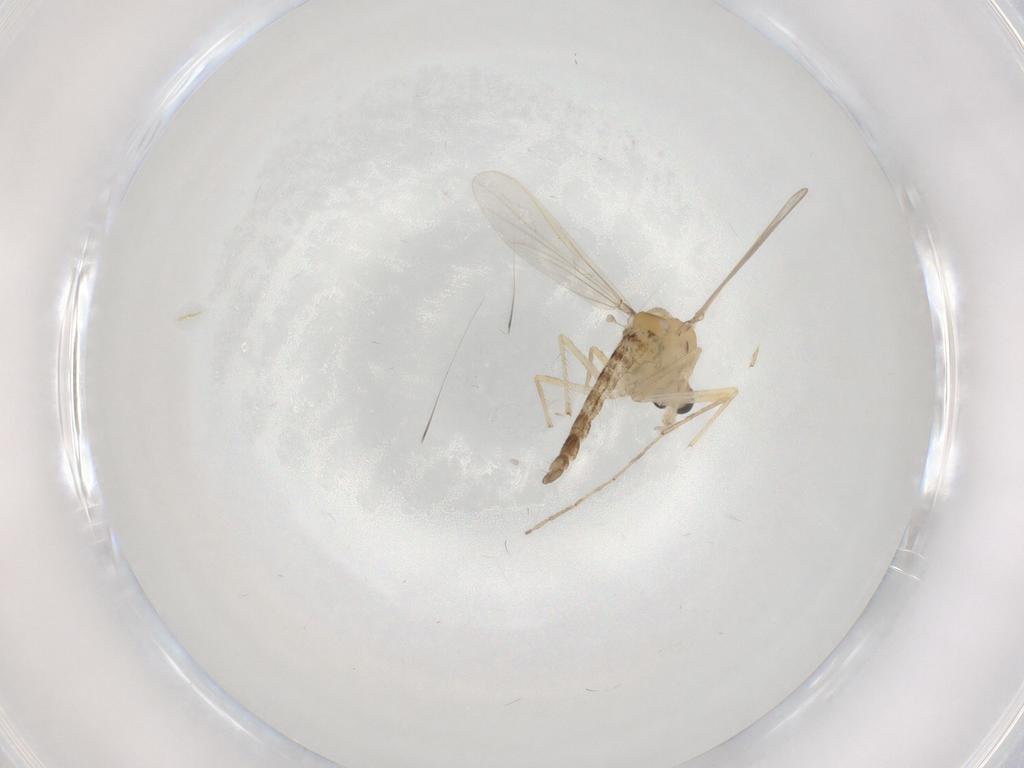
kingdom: Animalia
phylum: Arthropoda
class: Insecta
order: Diptera
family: Chironomidae
